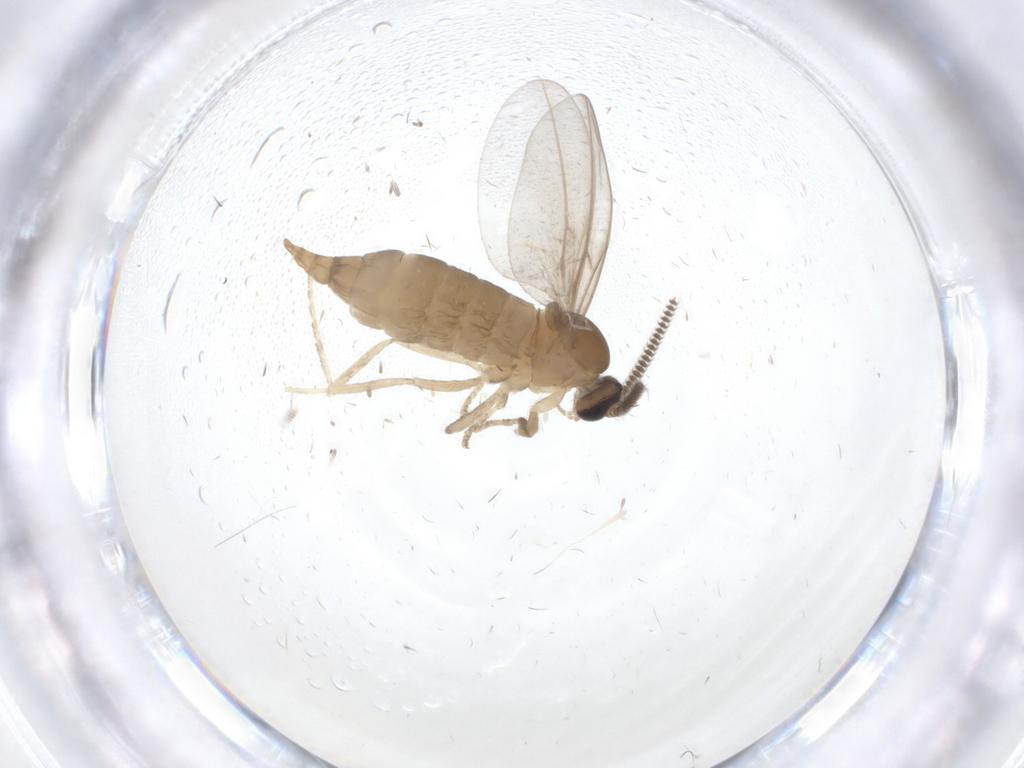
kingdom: Animalia
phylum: Arthropoda
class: Insecta
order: Diptera
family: Cecidomyiidae
